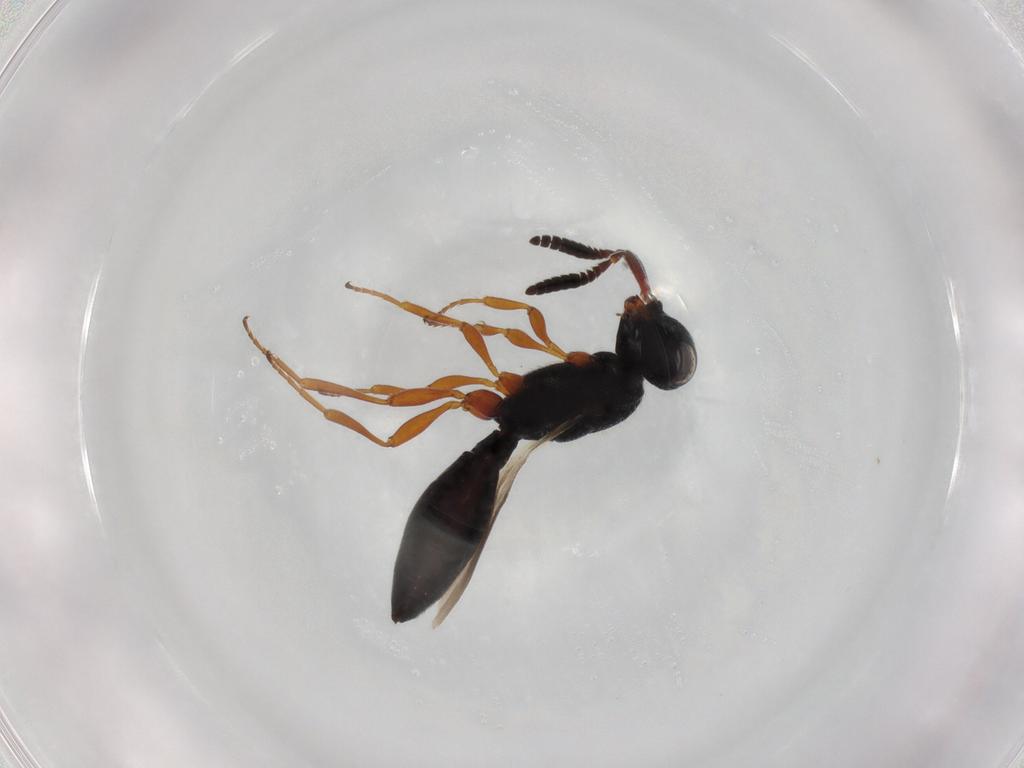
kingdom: Animalia
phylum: Arthropoda
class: Insecta
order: Hymenoptera
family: Scelionidae
